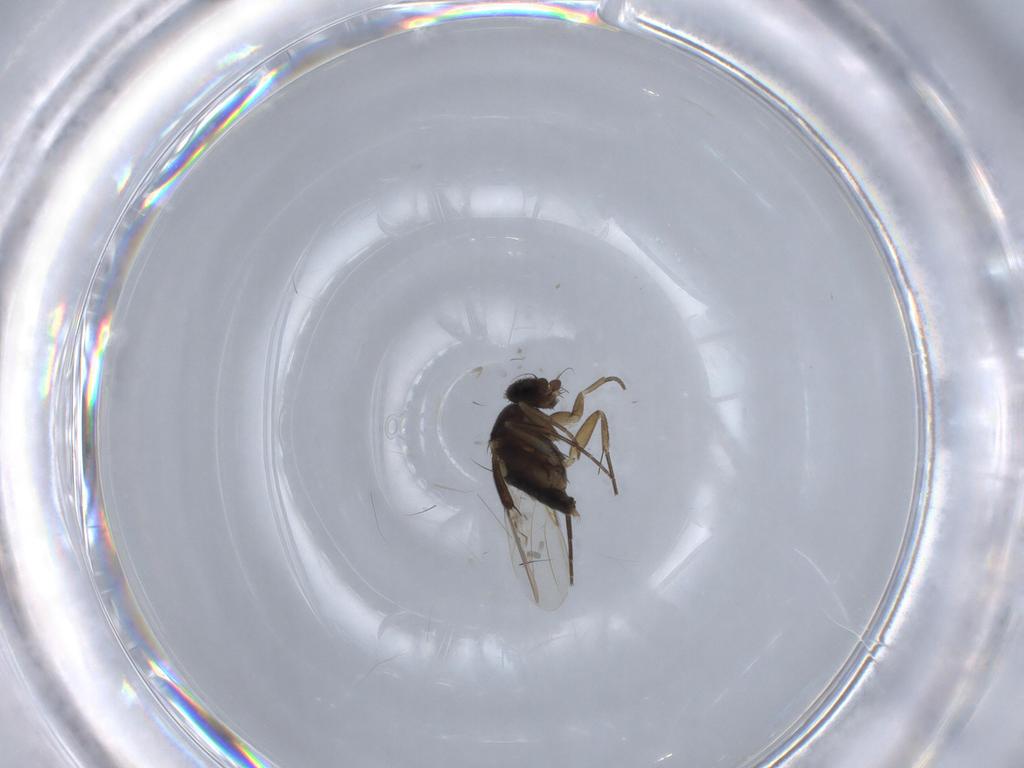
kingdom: Animalia
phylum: Arthropoda
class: Insecta
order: Diptera
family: Phoridae
